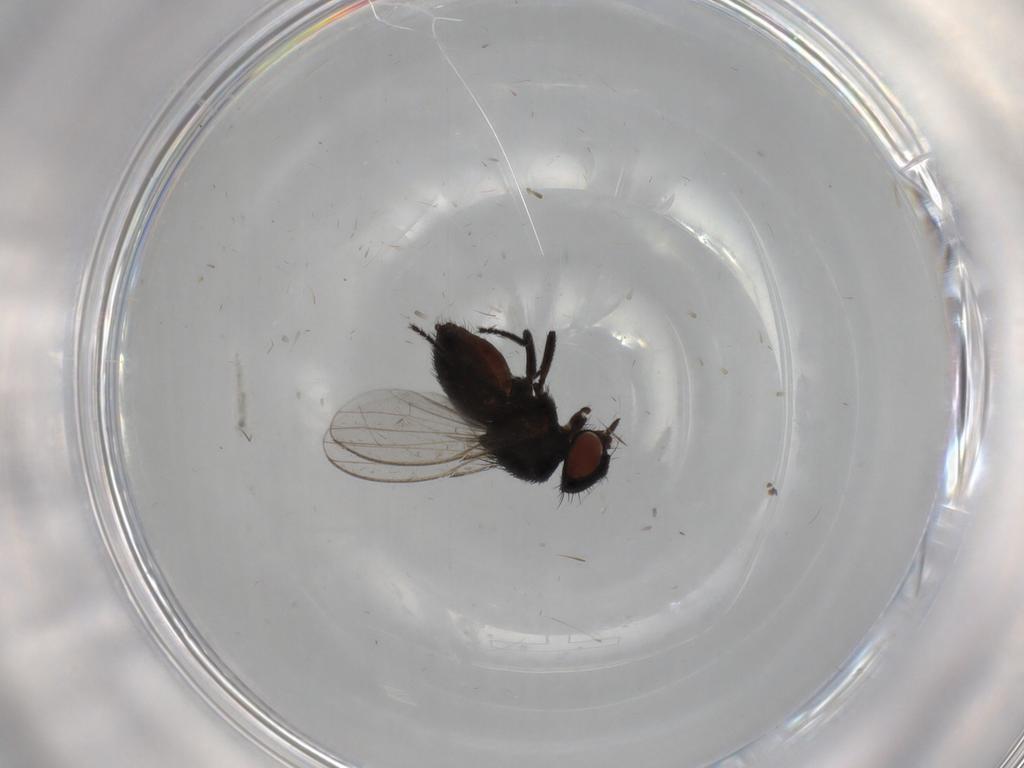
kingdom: Animalia
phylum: Arthropoda
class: Insecta
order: Diptera
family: Milichiidae
